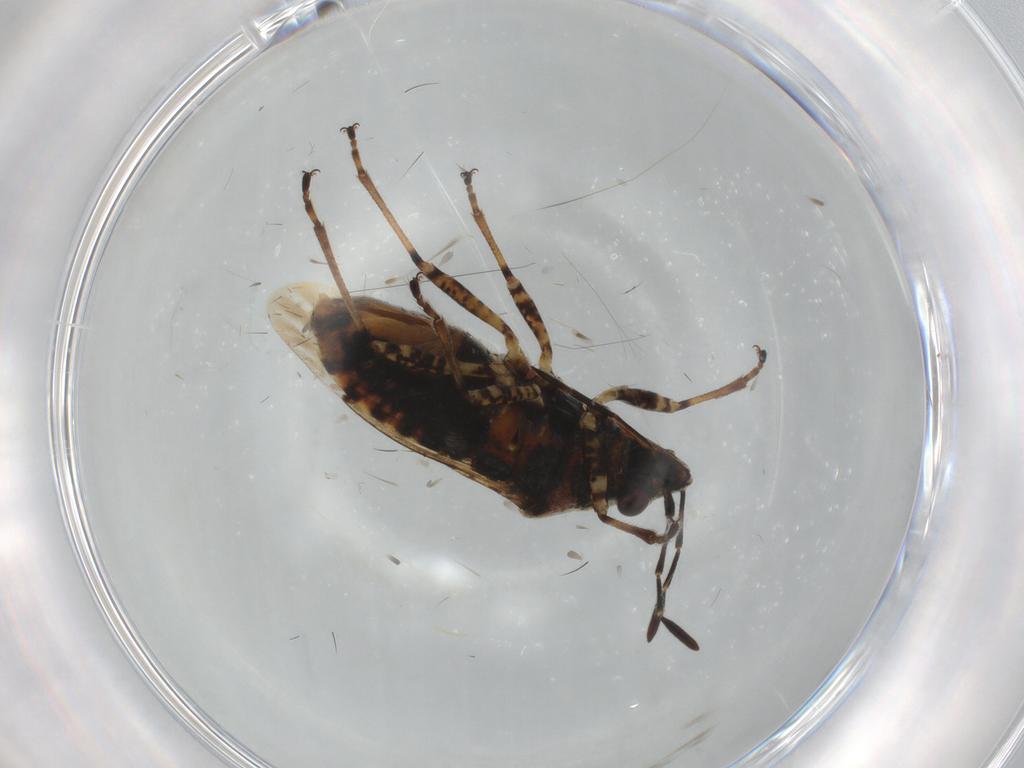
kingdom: Animalia
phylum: Arthropoda
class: Insecta
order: Hemiptera
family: Lygaeidae
